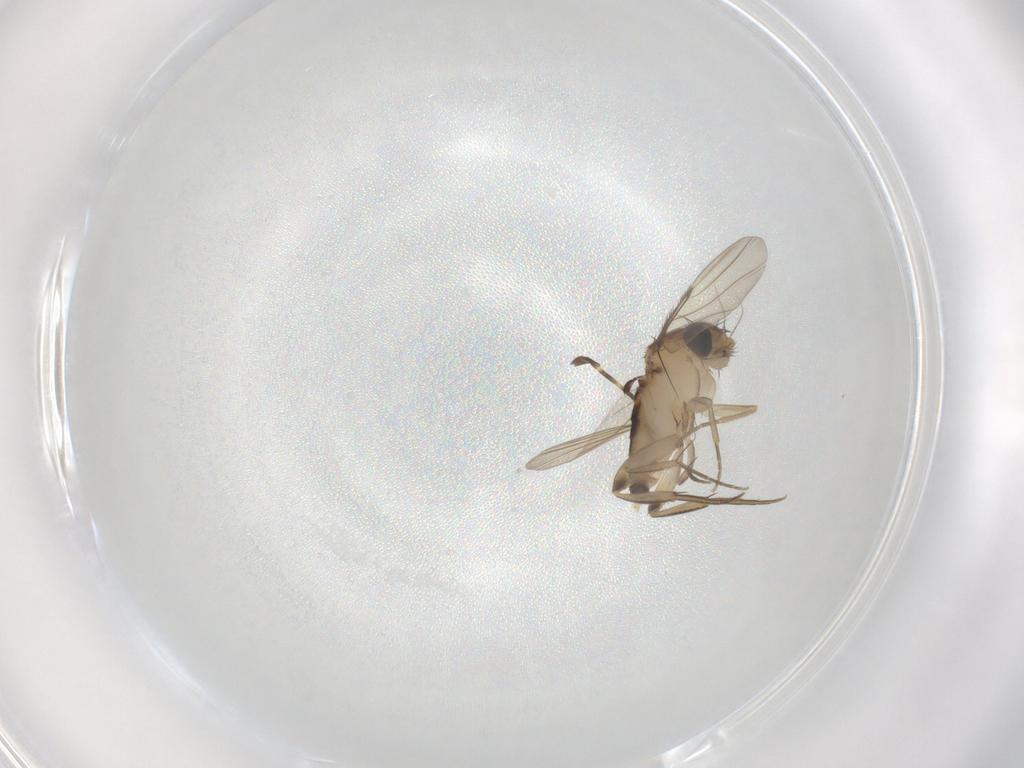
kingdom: Animalia
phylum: Arthropoda
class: Insecta
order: Diptera
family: Phoridae
